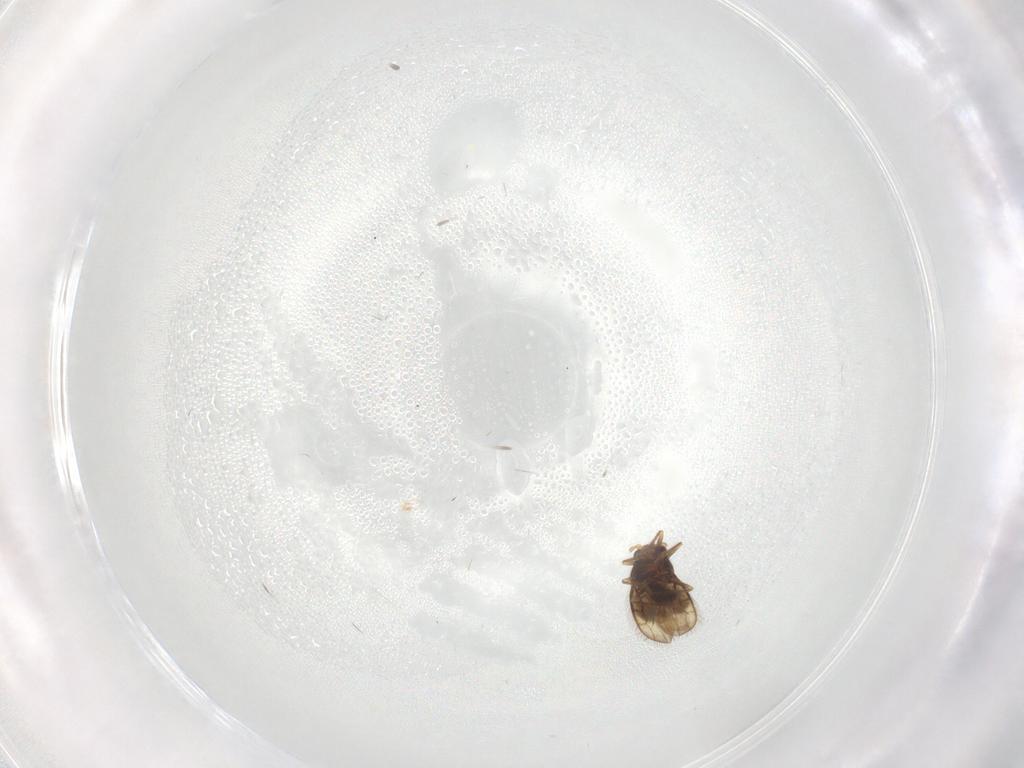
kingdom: Animalia
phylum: Arthropoda
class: Insecta
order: Hemiptera
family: Schizopteridae
